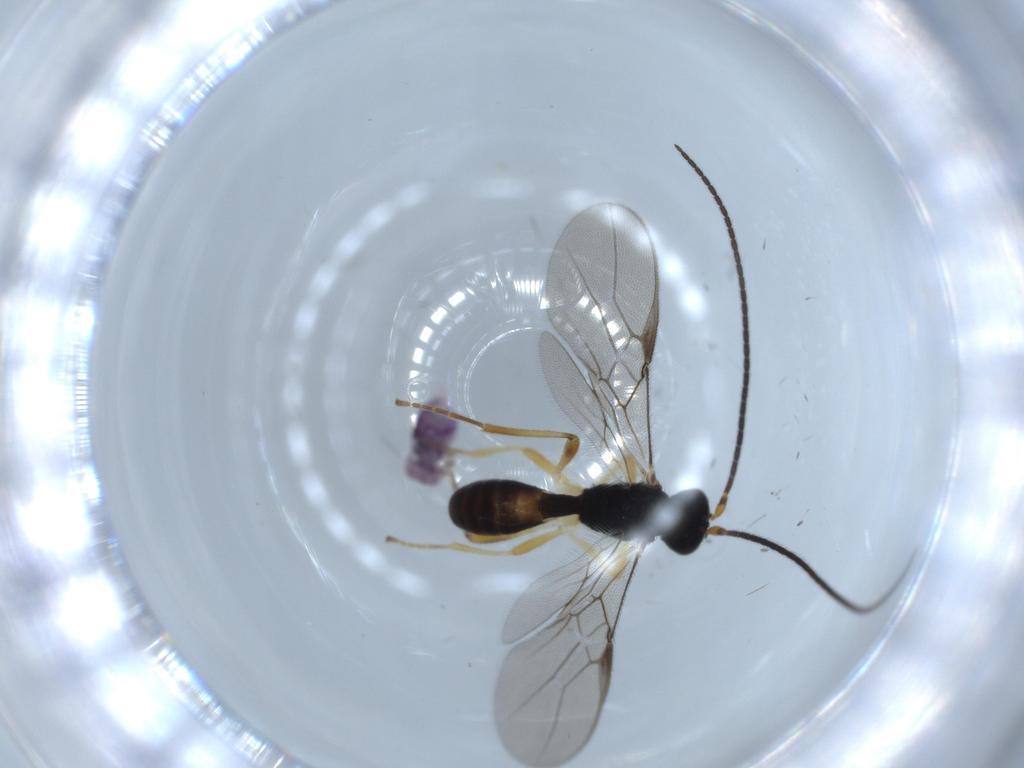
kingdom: Animalia
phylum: Arthropoda
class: Collembola
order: Symphypleona
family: Sminthuridae
